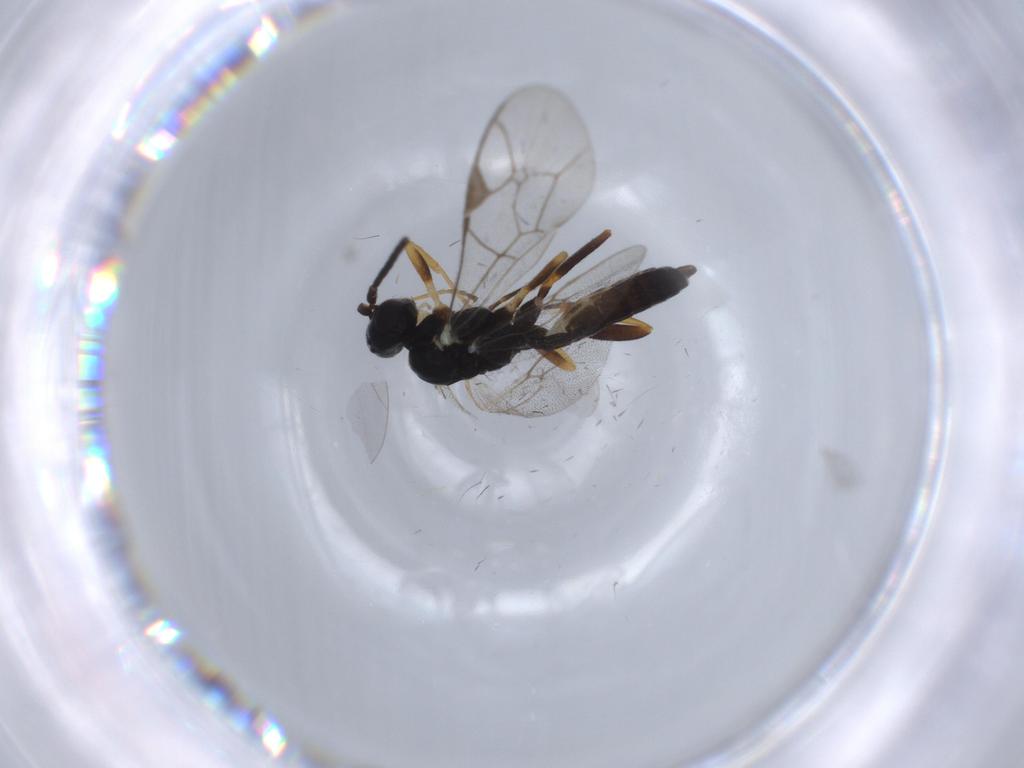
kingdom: Animalia
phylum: Arthropoda
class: Insecta
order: Hymenoptera
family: Ichneumonidae
